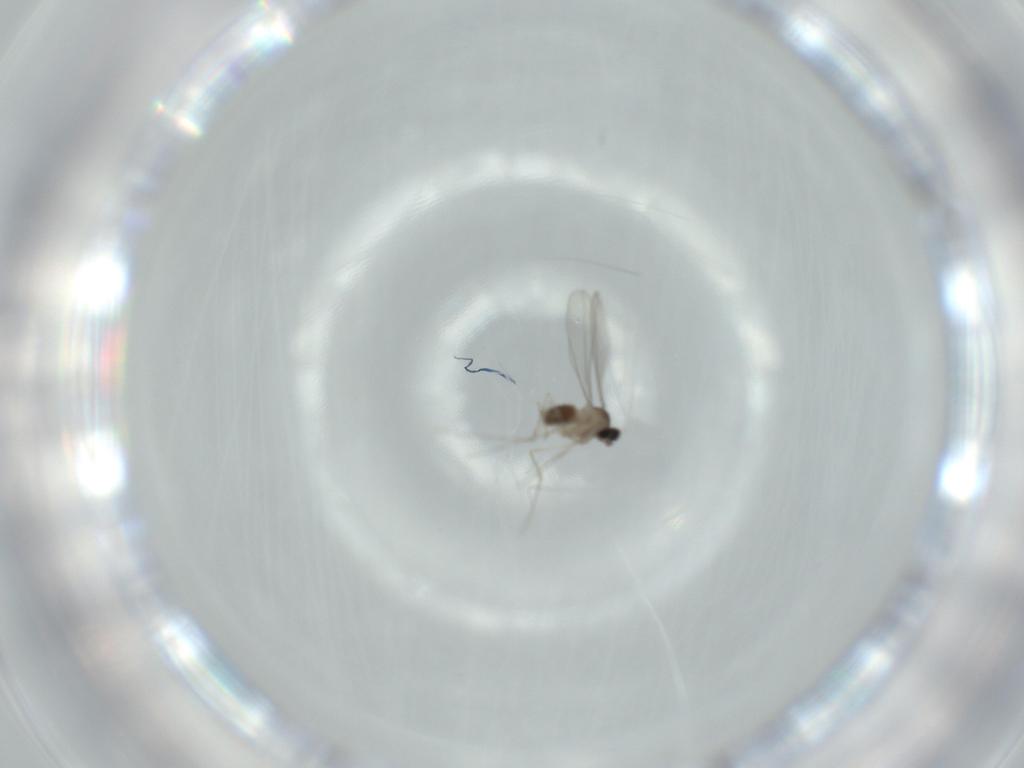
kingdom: Animalia
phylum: Arthropoda
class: Insecta
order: Diptera
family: Cecidomyiidae
